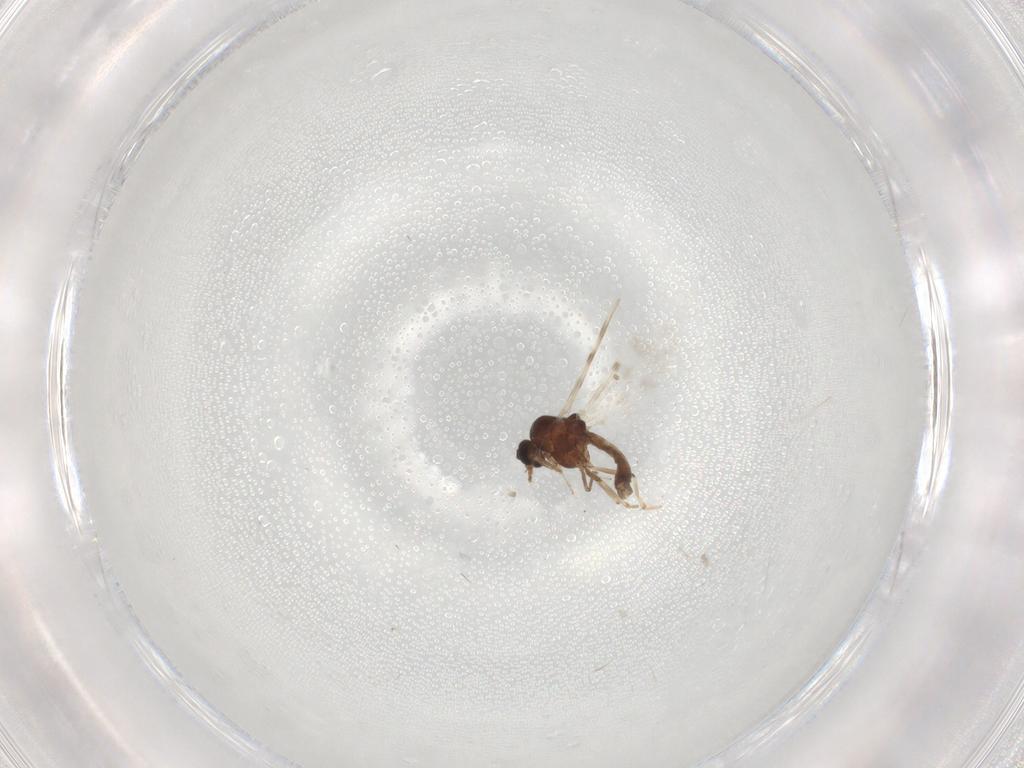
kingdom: Animalia
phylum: Arthropoda
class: Insecta
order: Diptera
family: Ceratopogonidae
